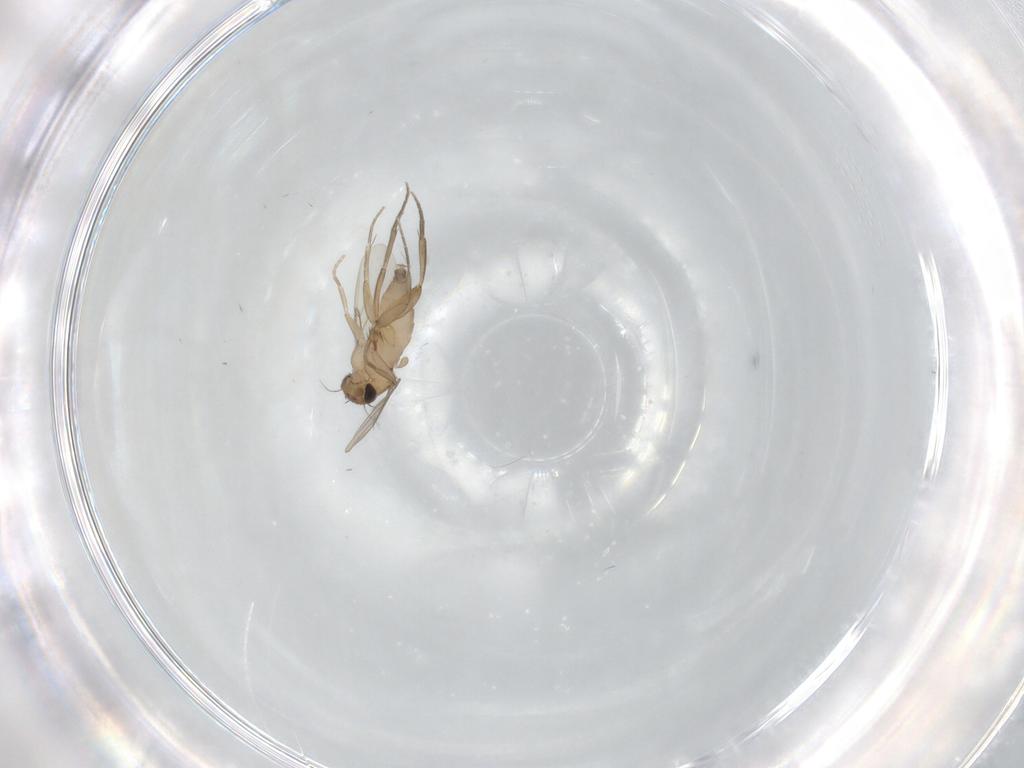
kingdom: Animalia
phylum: Arthropoda
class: Insecta
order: Diptera
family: Phoridae
